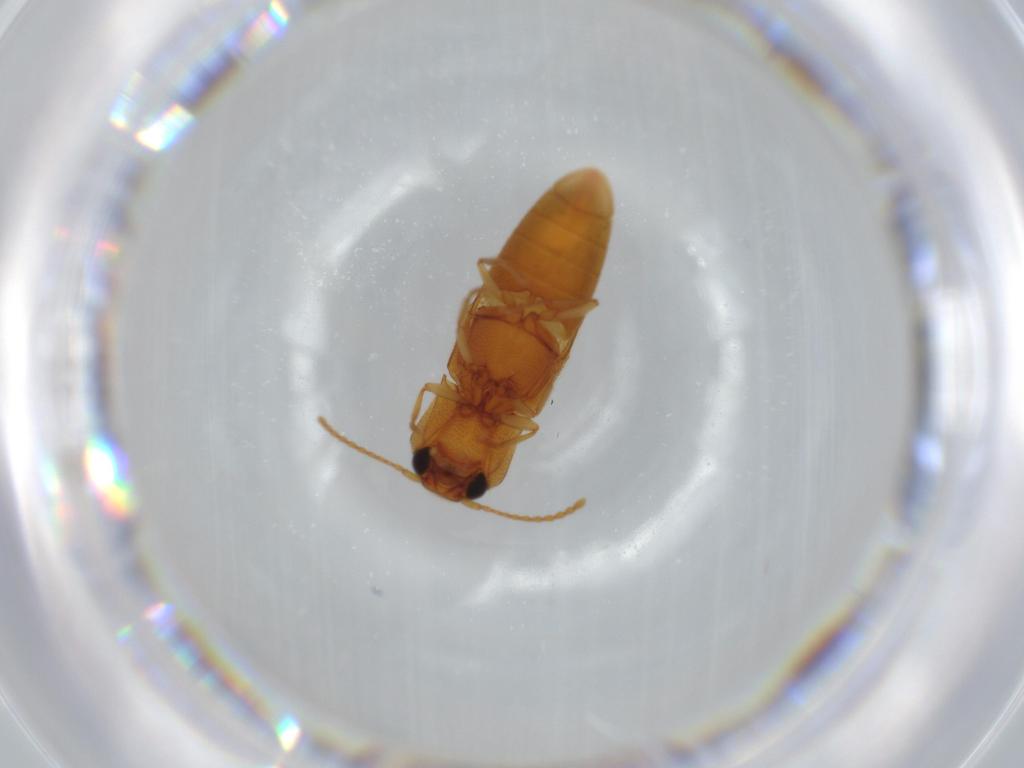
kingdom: Animalia
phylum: Arthropoda
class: Insecta
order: Coleoptera
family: Elateridae
